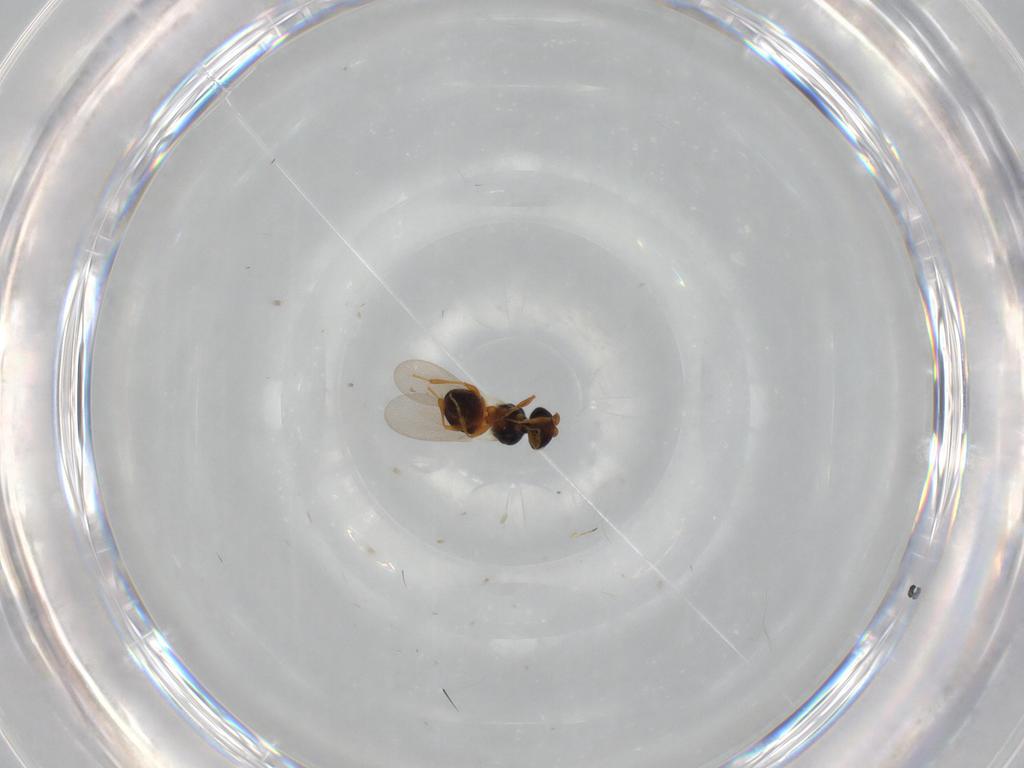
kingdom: Animalia
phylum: Arthropoda
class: Insecta
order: Hymenoptera
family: Platygastridae
